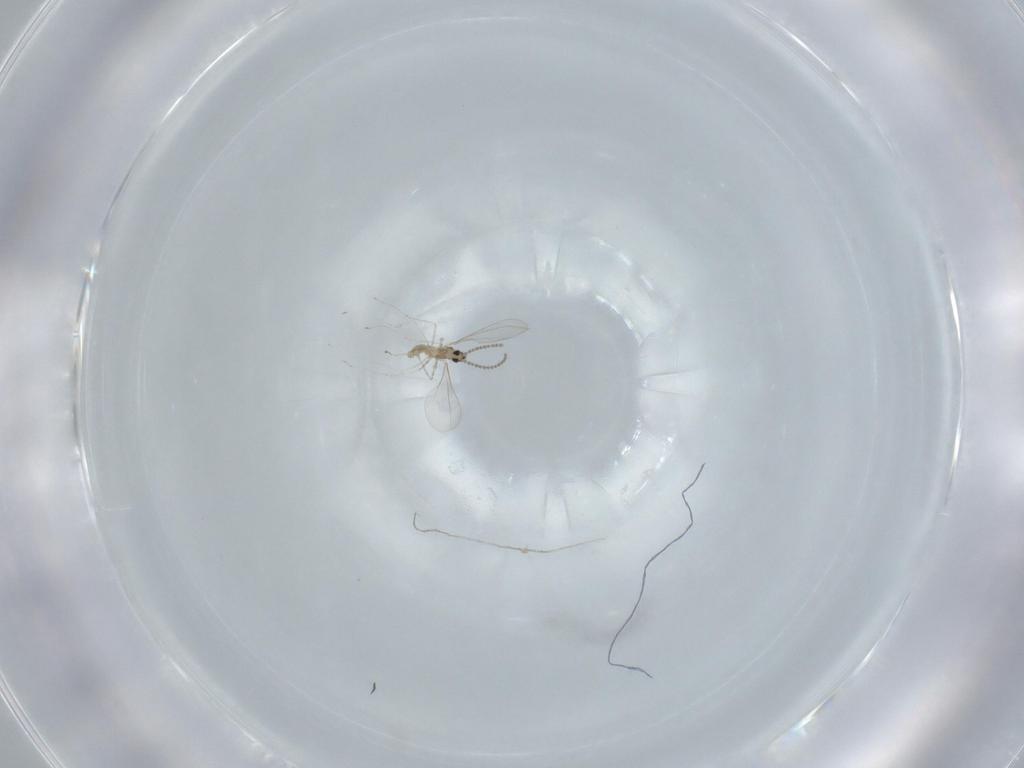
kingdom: Animalia
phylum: Arthropoda
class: Insecta
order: Diptera
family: Cecidomyiidae
